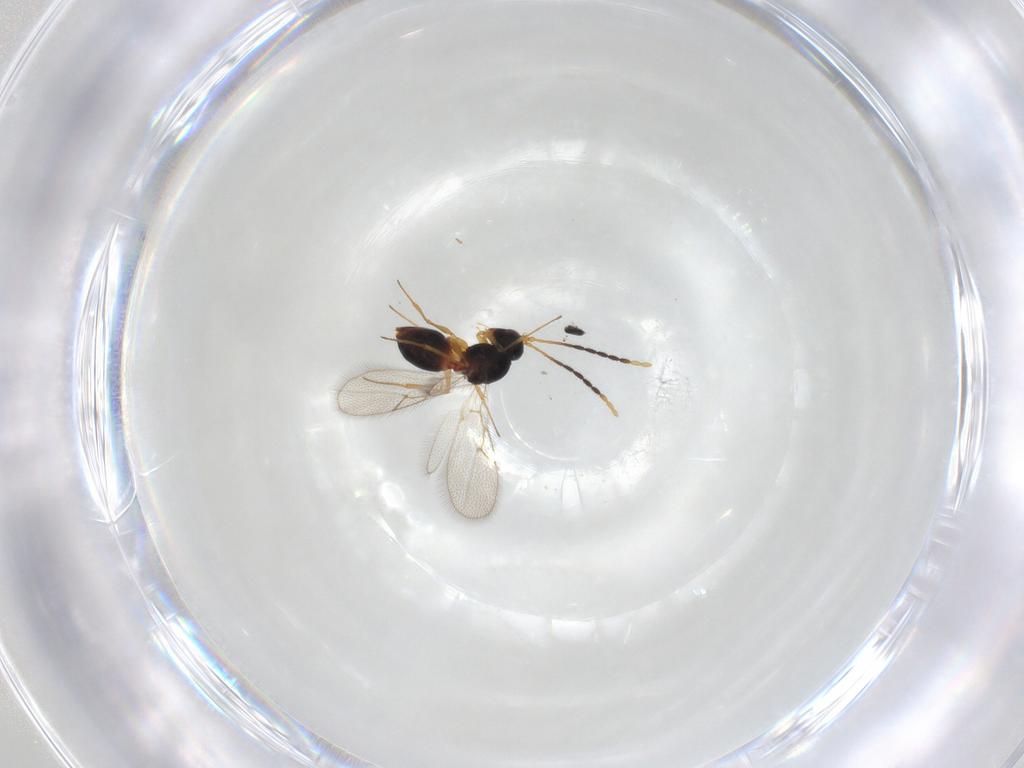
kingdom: Animalia
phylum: Arthropoda
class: Insecta
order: Hymenoptera
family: Figitidae
